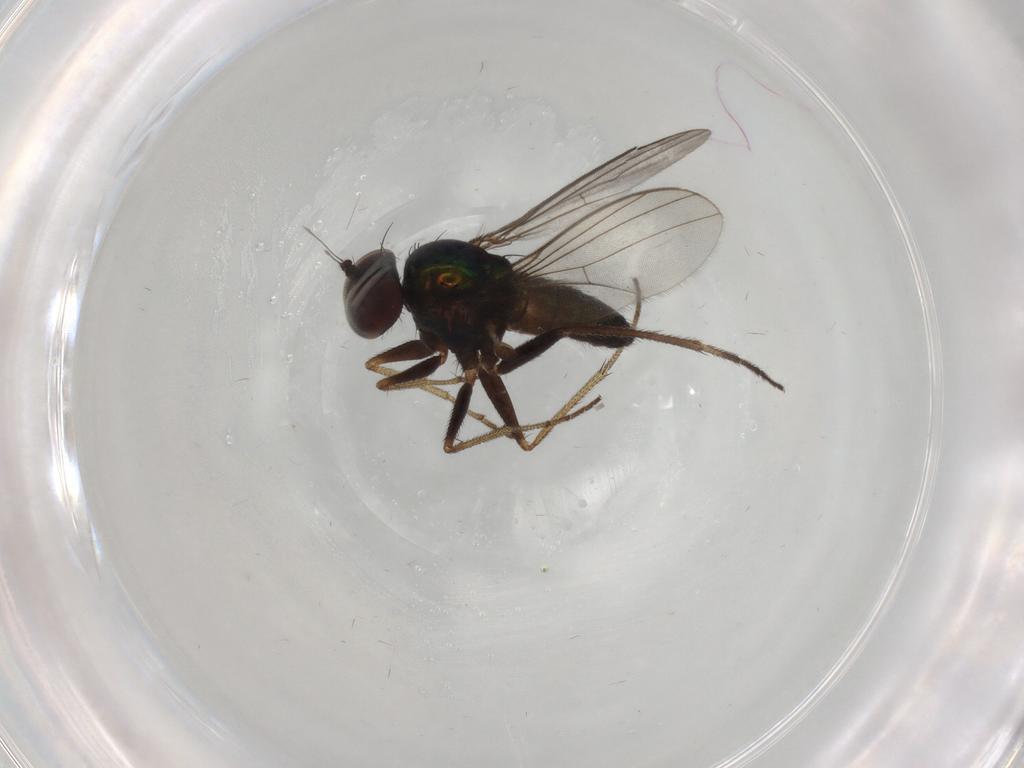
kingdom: Animalia
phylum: Arthropoda
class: Insecta
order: Diptera
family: Dolichopodidae
